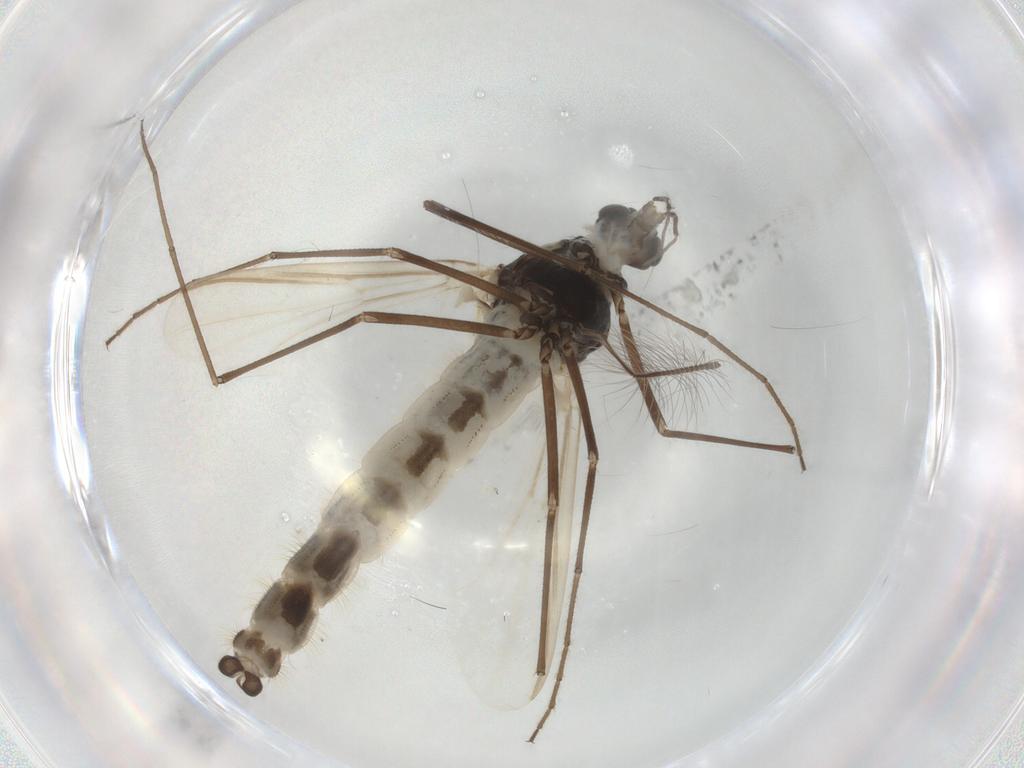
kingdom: Animalia
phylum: Arthropoda
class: Insecta
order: Diptera
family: Chironomidae
